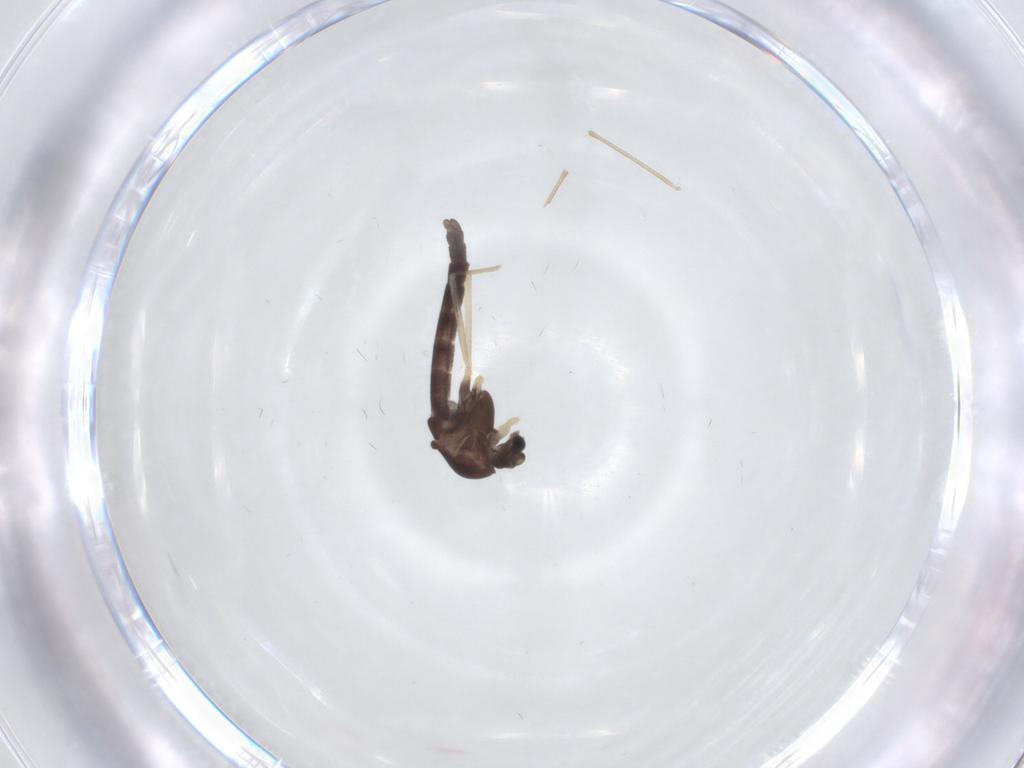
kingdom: Animalia
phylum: Arthropoda
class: Insecta
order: Diptera
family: Chironomidae
